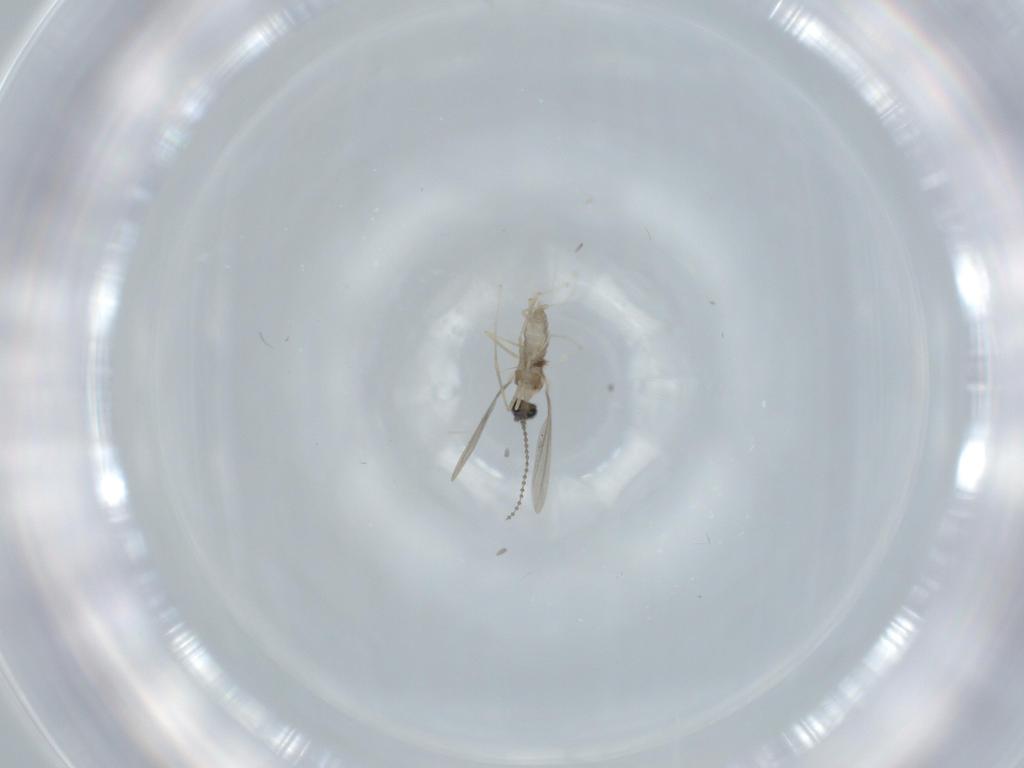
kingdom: Animalia
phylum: Arthropoda
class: Insecta
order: Diptera
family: Cecidomyiidae
